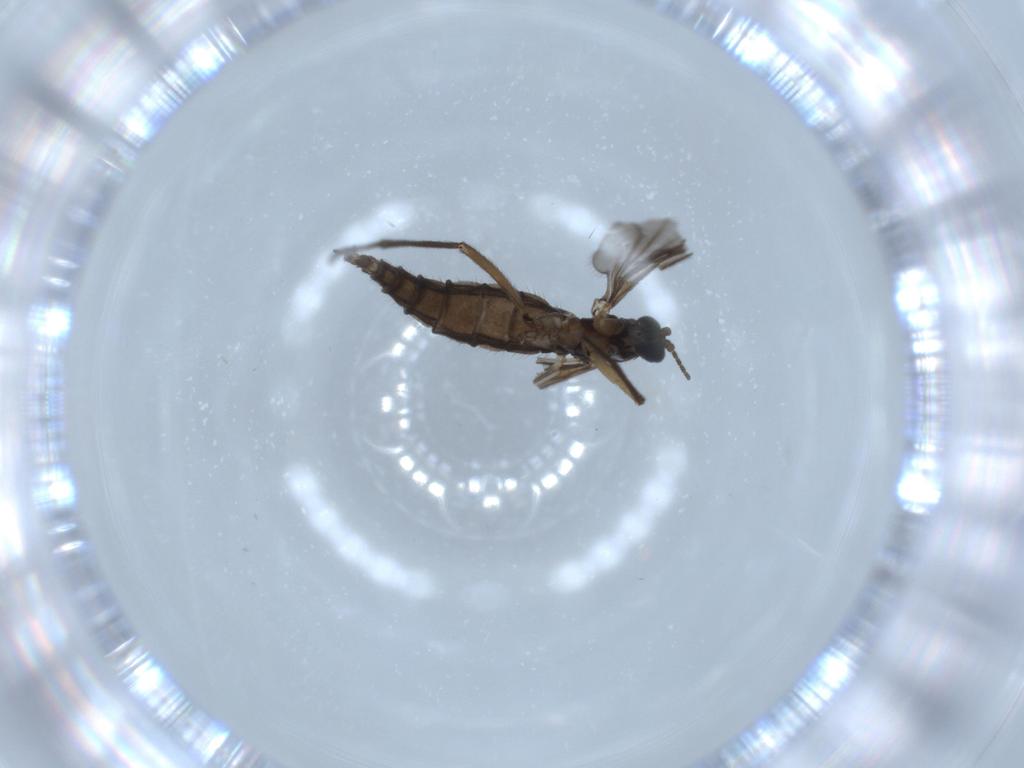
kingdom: Animalia
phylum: Arthropoda
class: Insecta
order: Diptera
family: Sciaridae
